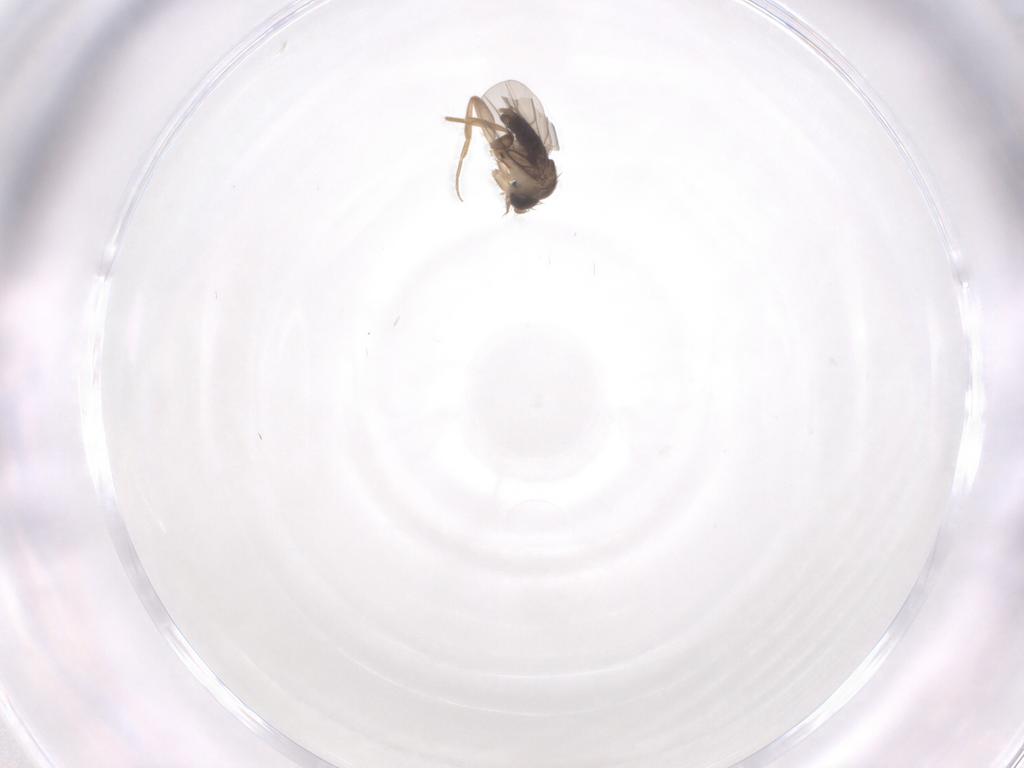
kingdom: Animalia
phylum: Arthropoda
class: Insecta
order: Diptera
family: Phoridae
